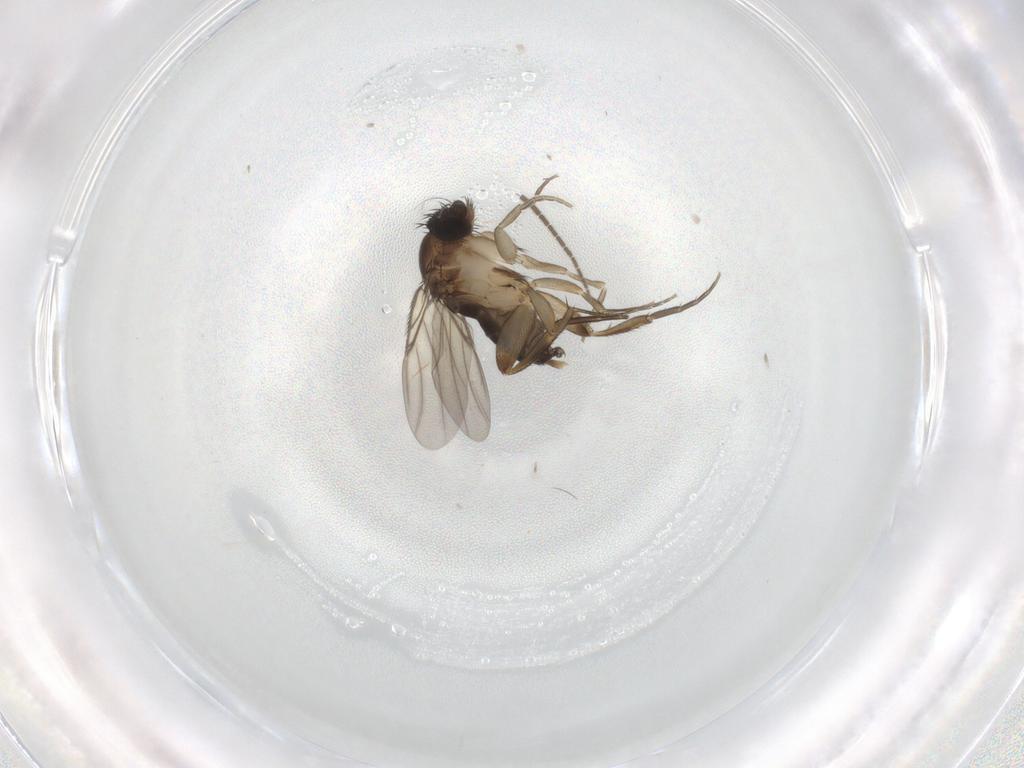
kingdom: Animalia
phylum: Arthropoda
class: Insecta
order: Diptera
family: Phoridae
